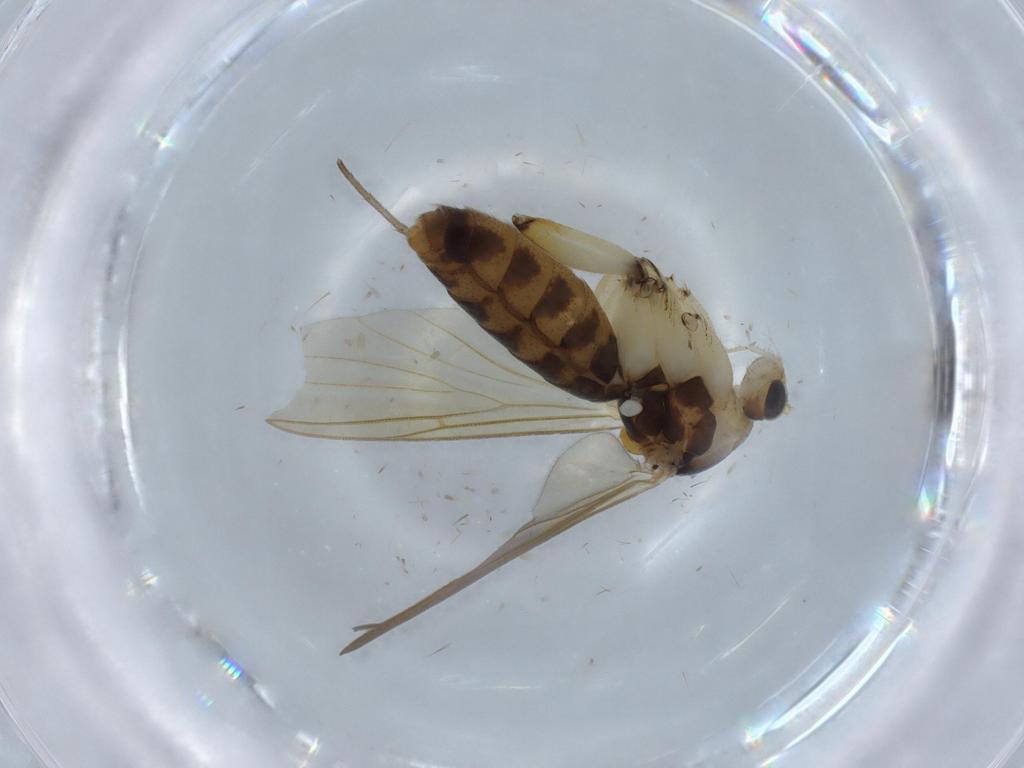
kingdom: Animalia
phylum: Arthropoda
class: Insecta
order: Diptera
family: Mycetophilidae
